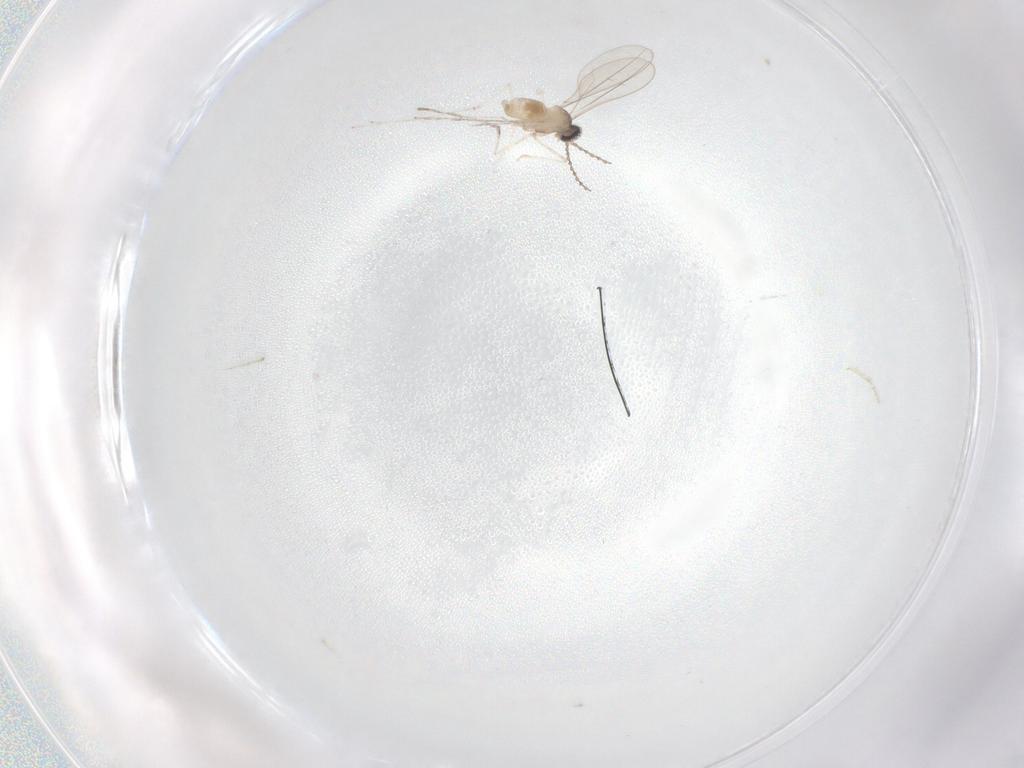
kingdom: Animalia
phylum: Arthropoda
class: Insecta
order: Diptera
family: Cecidomyiidae
